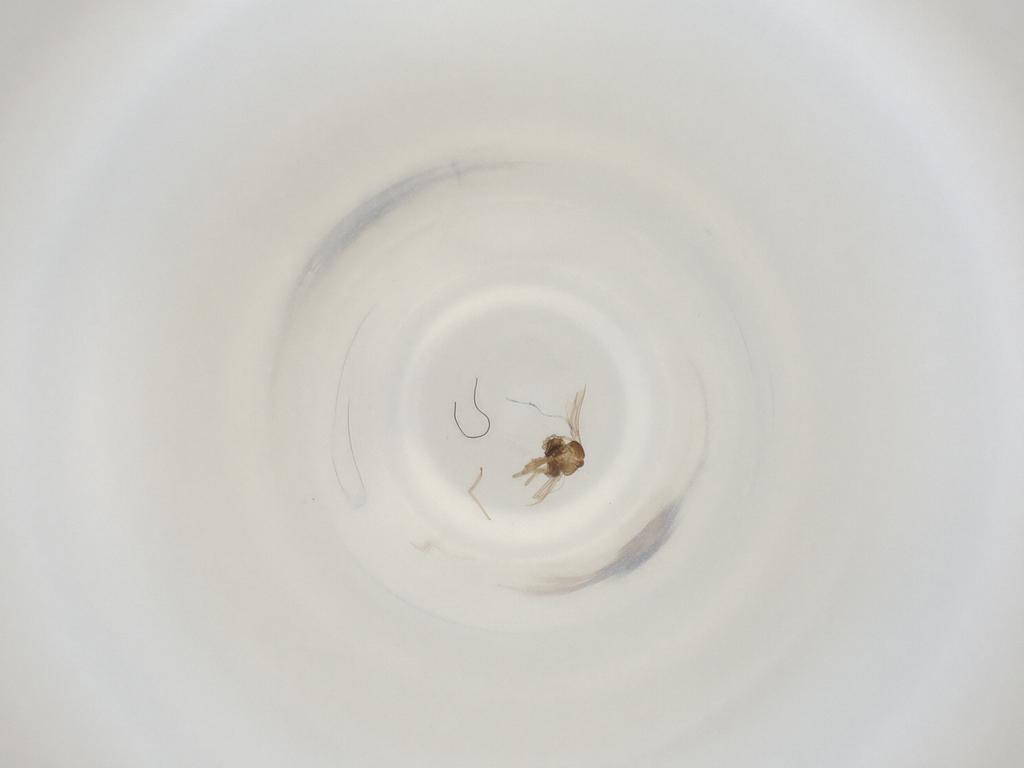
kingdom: Animalia
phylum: Arthropoda
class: Insecta
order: Diptera
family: Cecidomyiidae
